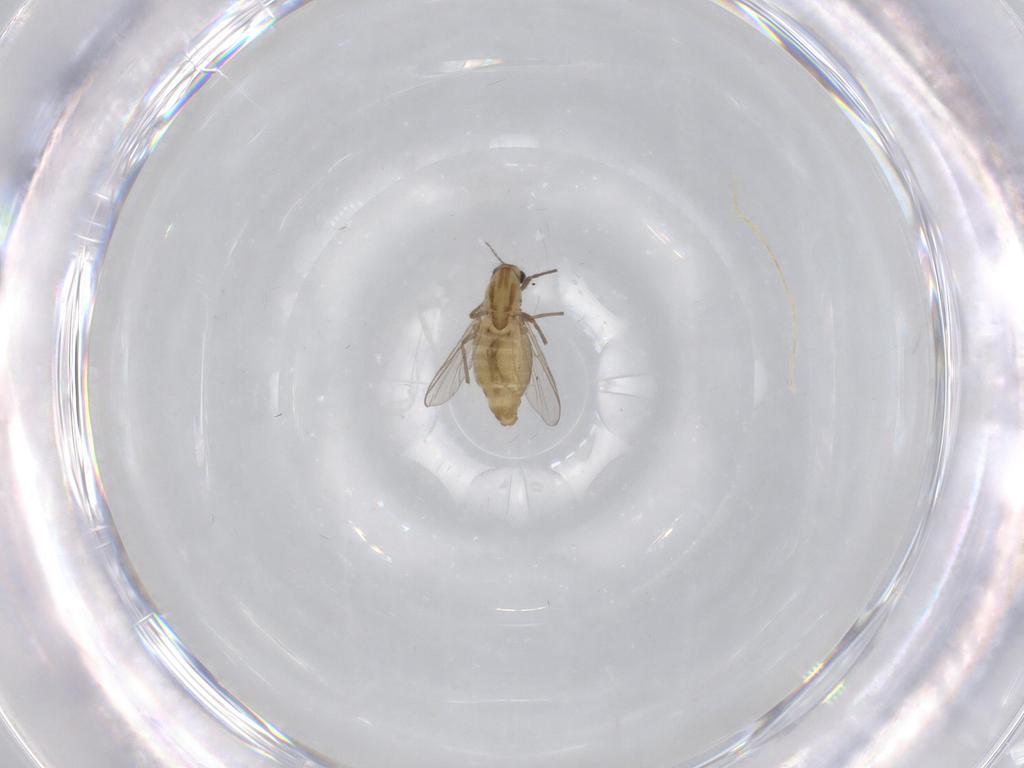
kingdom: Animalia
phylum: Arthropoda
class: Insecta
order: Diptera
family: Chironomidae
